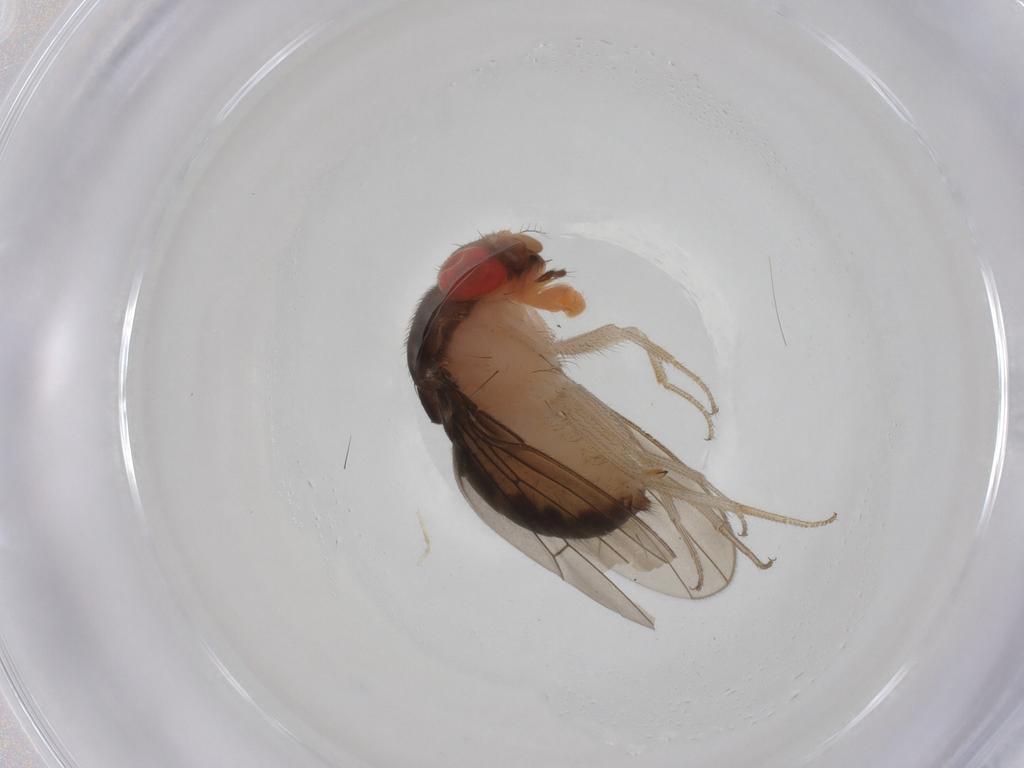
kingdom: Animalia
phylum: Arthropoda
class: Insecta
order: Diptera
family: Drosophilidae
